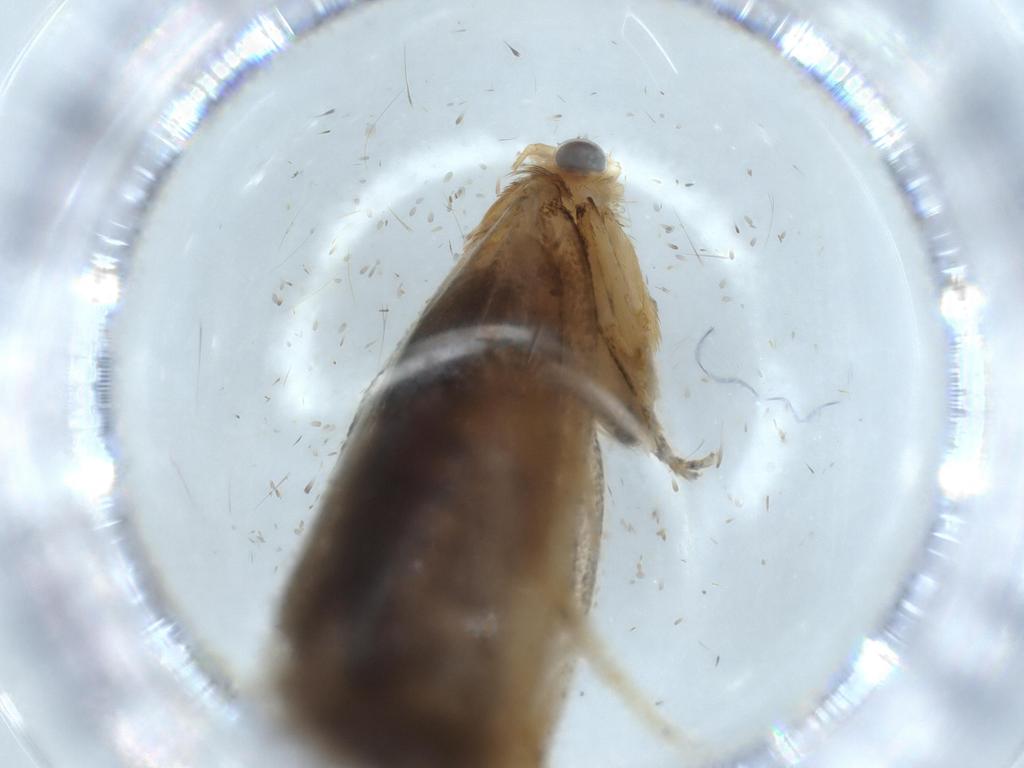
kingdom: Animalia
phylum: Arthropoda
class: Insecta
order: Lepidoptera
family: Tineidae
